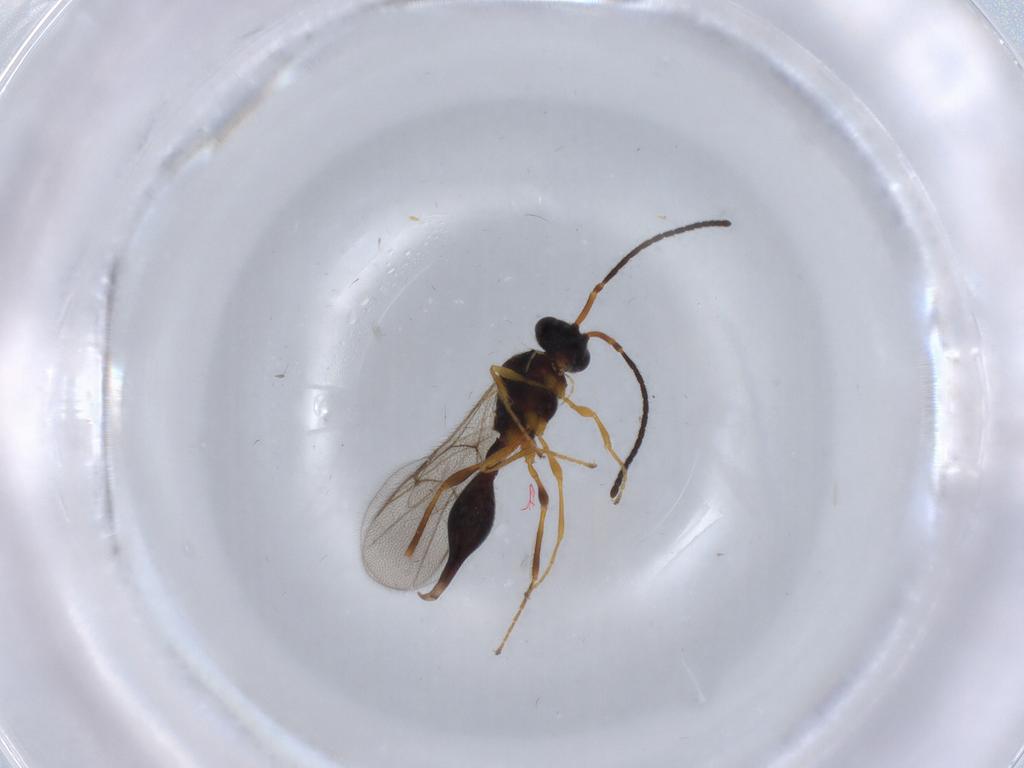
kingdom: Animalia
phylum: Arthropoda
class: Insecta
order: Hymenoptera
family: Diapriidae
